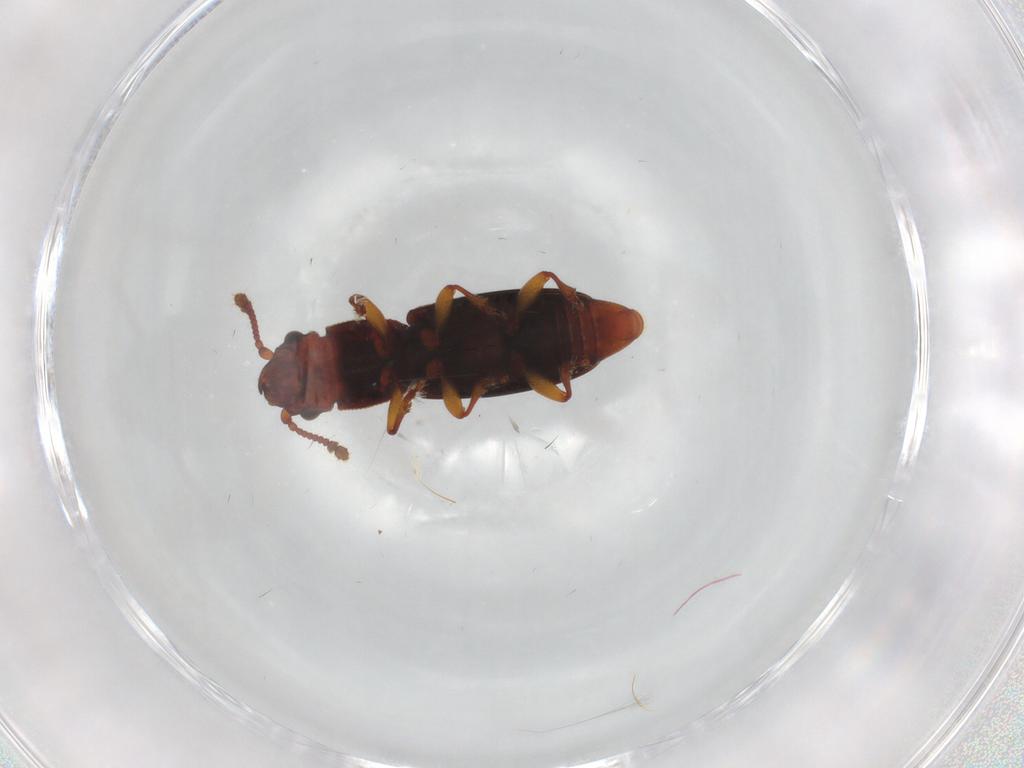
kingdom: Animalia
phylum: Arthropoda
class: Insecta
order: Coleoptera
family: Monotomidae
